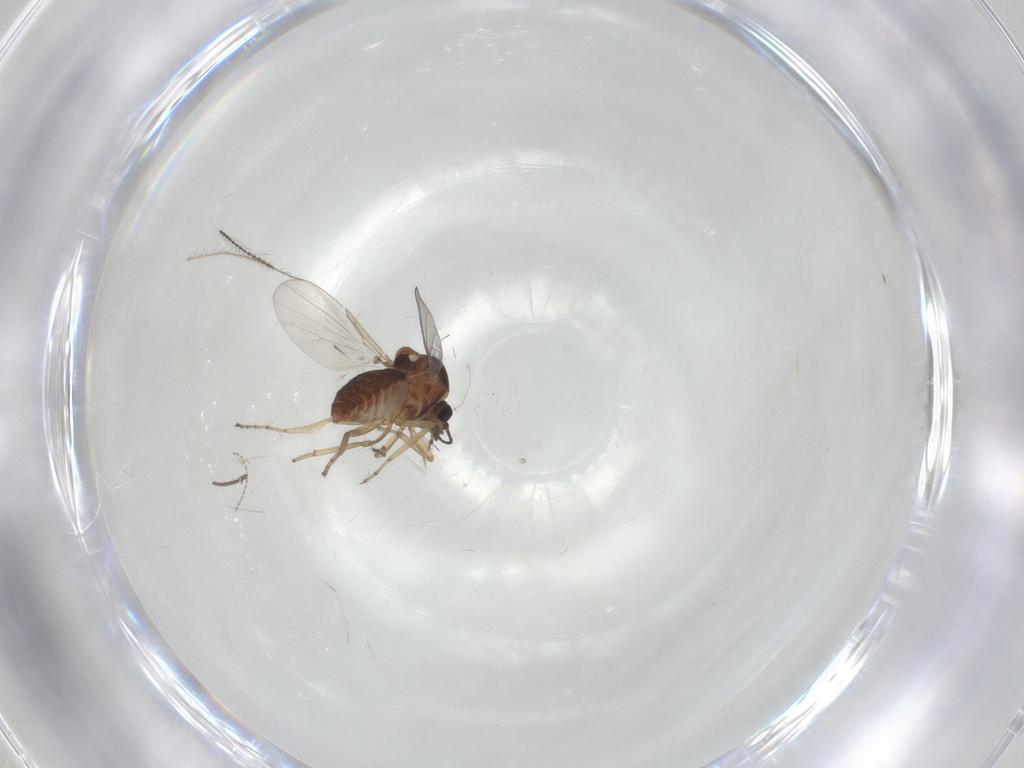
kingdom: Animalia
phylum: Arthropoda
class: Insecta
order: Diptera
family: Ceratopogonidae
